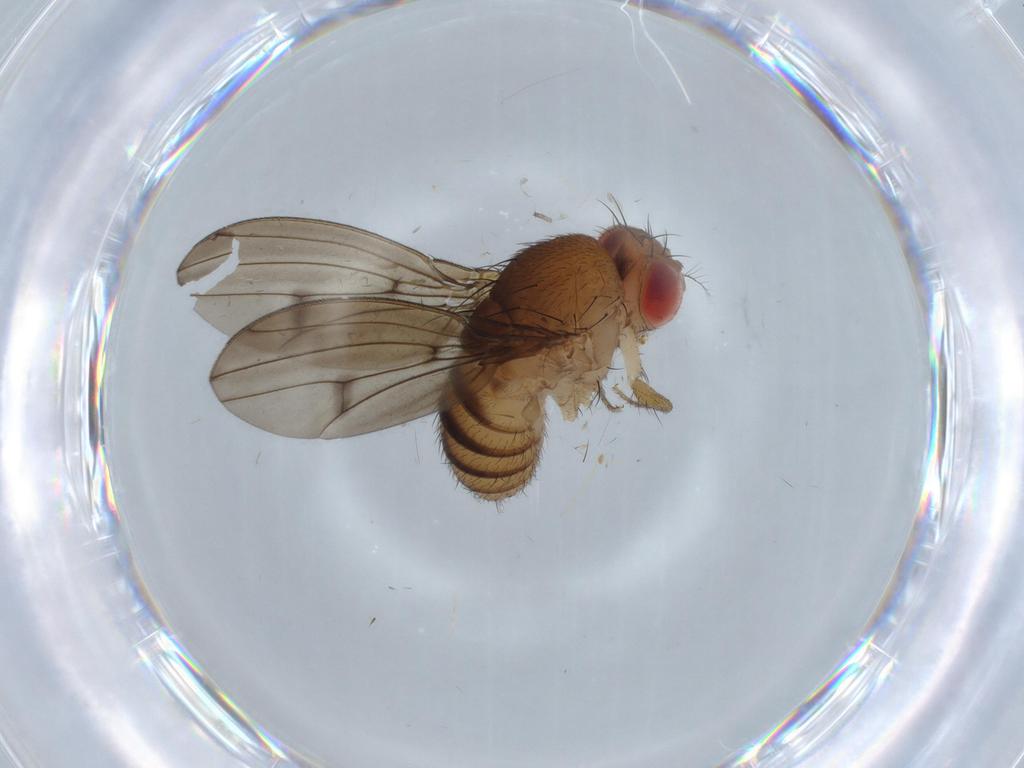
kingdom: Animalia
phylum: Arthropoda
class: Insecta
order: Diptera
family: Drosophilidae
